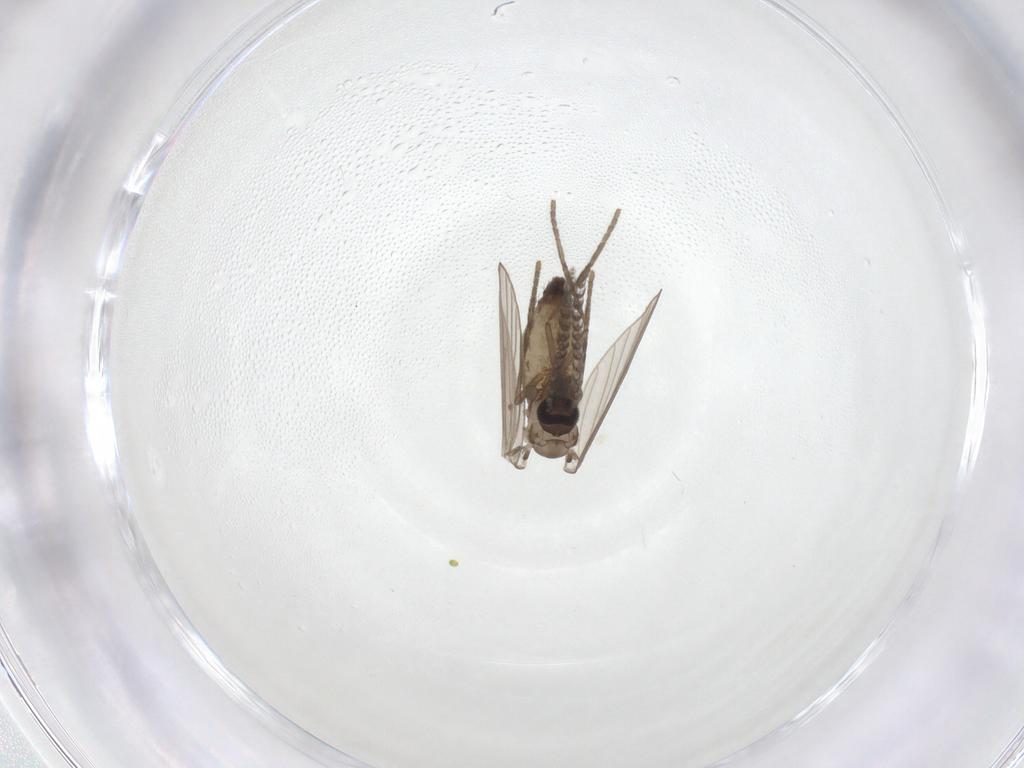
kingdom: Animalia
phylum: Arthropoda
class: Insecta
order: Diptera
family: Psychodidae
